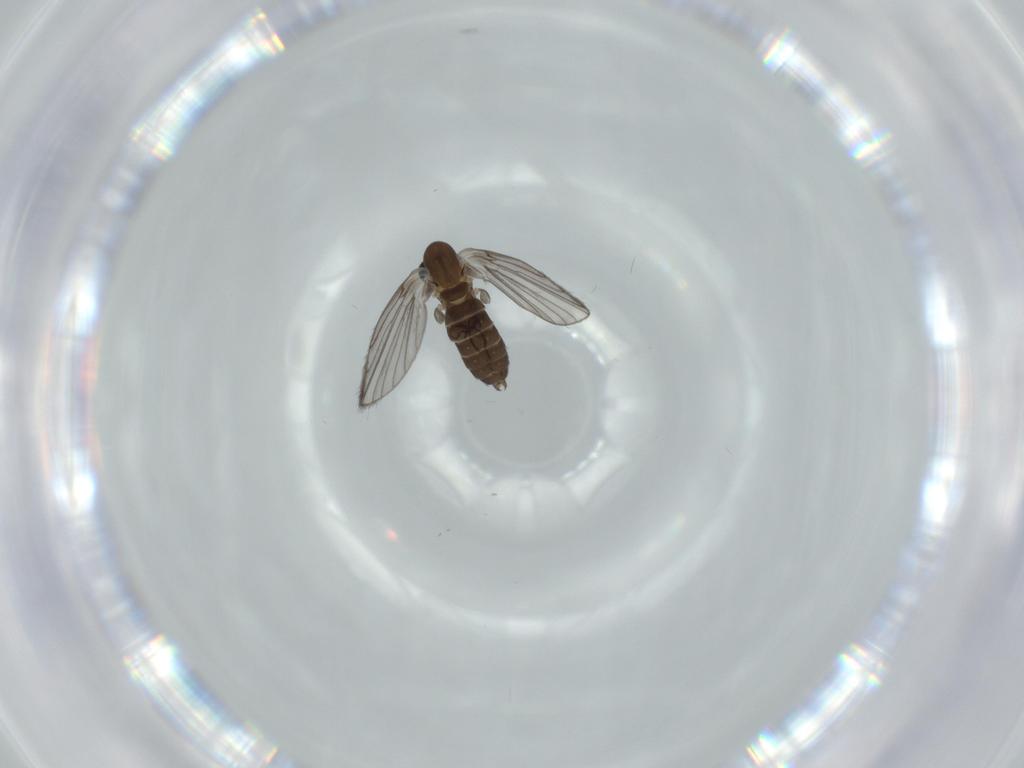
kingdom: Animalia
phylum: Arthropoda
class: Insecta
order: Diptera
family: Psychodidae
